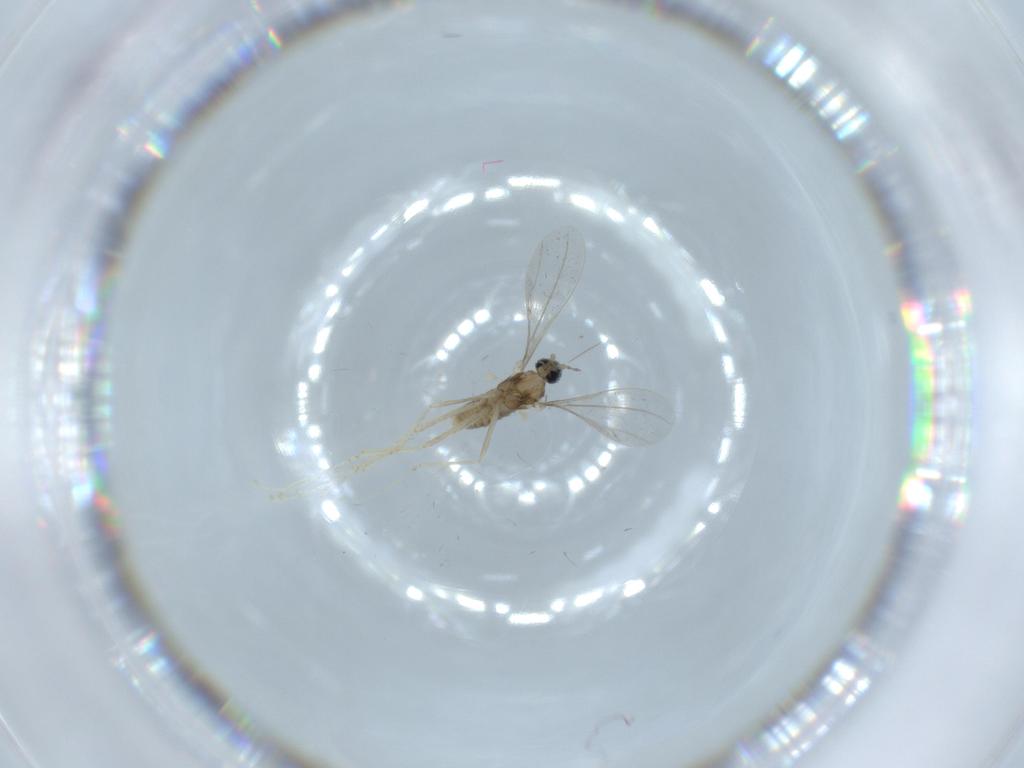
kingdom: Animalia
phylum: Arthropoda
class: Insecta
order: Diptera
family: Cecidomyiidae
